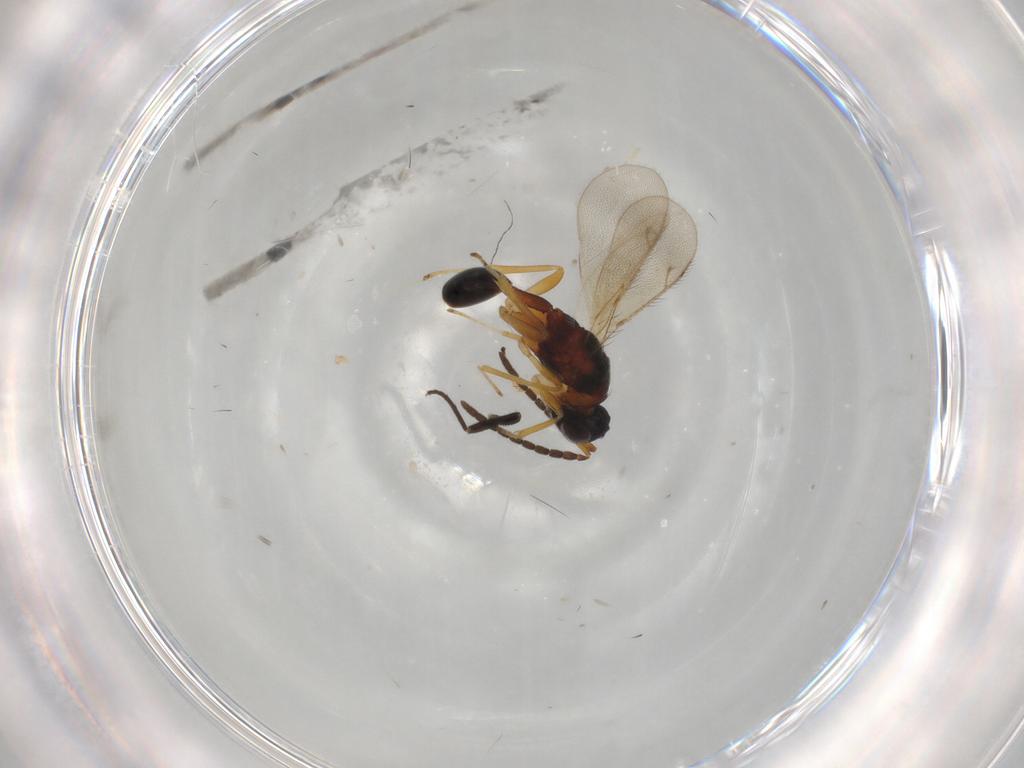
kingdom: Animalia
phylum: Arthropoda
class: Insecta
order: Hymenoptera
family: Diparidae
